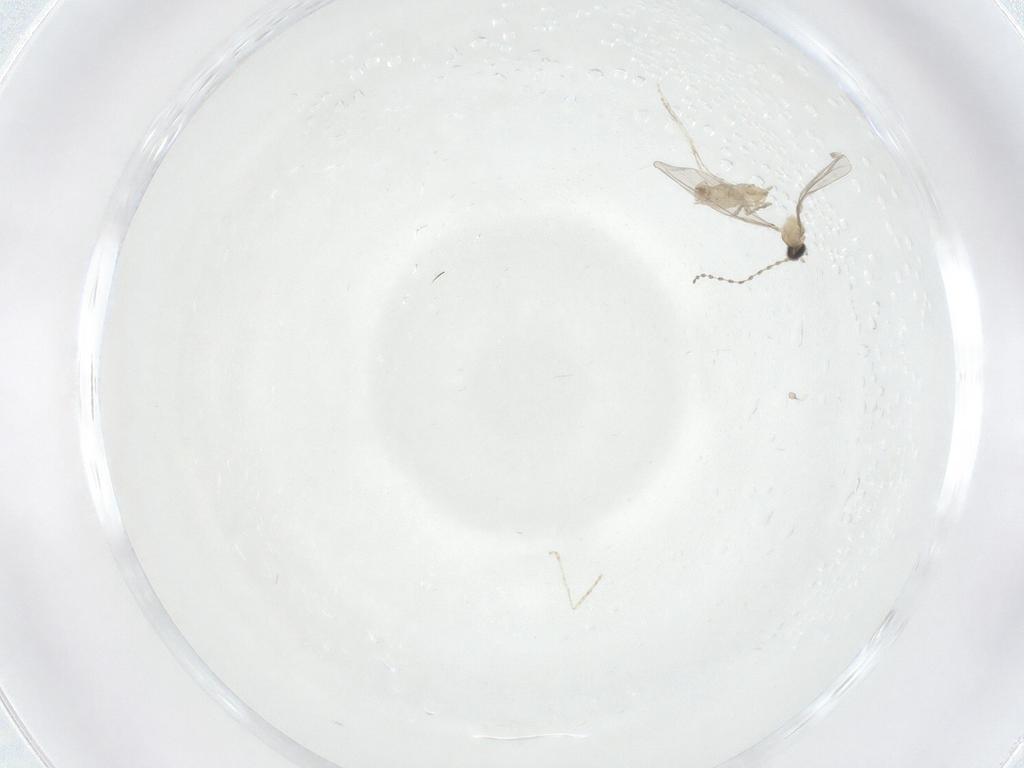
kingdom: Animalia
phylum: Arthropoda
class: Insecta
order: Diptera
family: Cecidomyiidae
